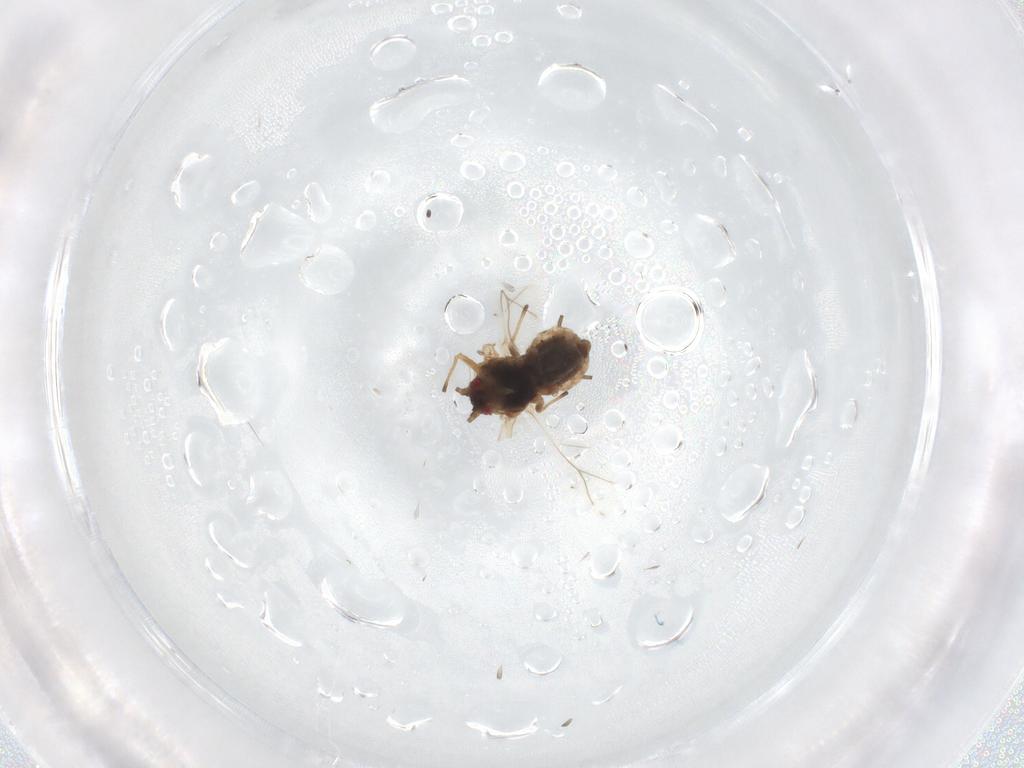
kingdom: Animalia
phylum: Arthropoda
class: Insecta
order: Hemiptera
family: Aphididae
